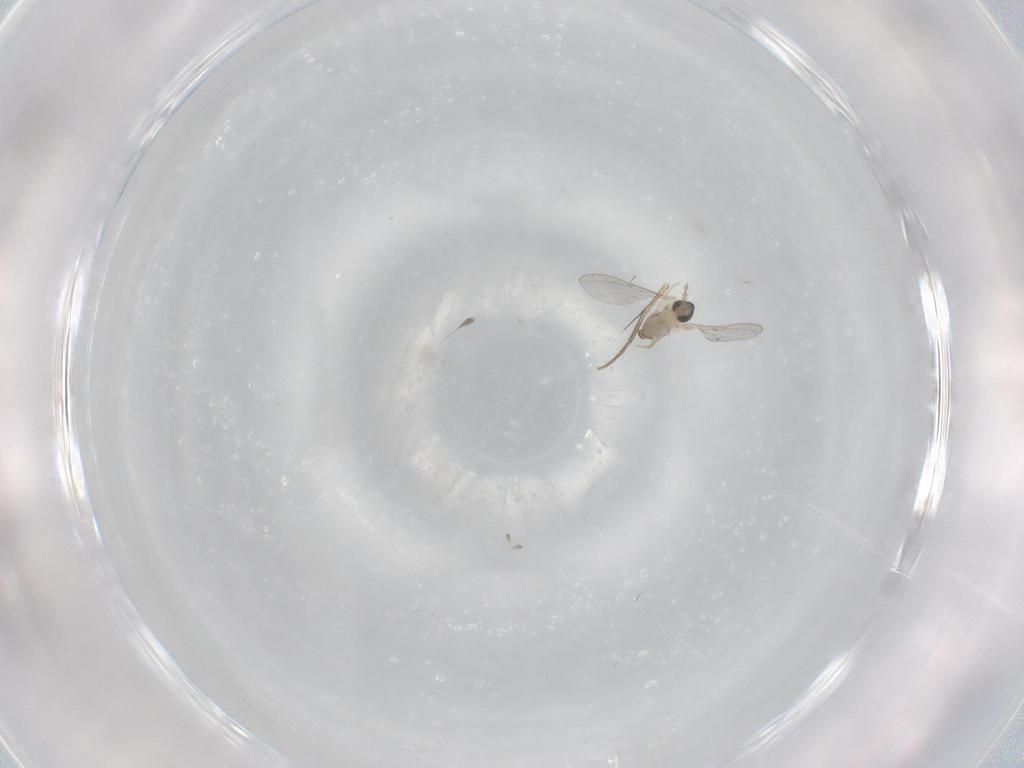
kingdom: Animalia
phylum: Arthropoda
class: Insecta
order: Diptera
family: Cecidomyiidae
